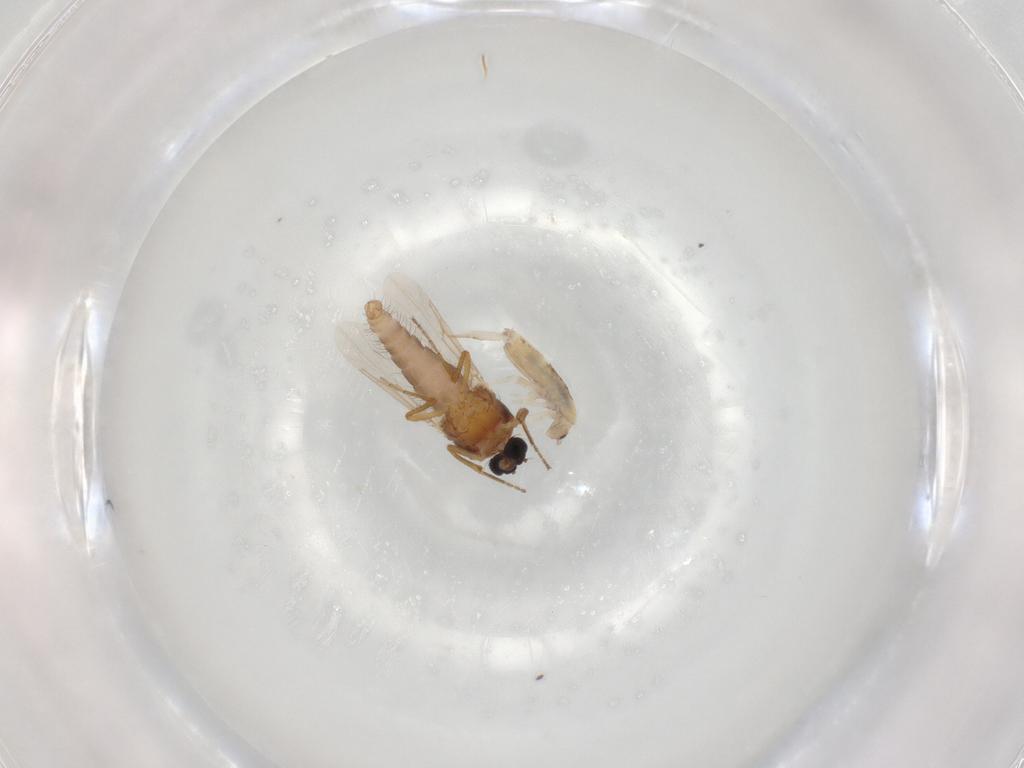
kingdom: Animalia
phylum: Arthropoda
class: Insecta
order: Diptera
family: Ceratopogonidae
